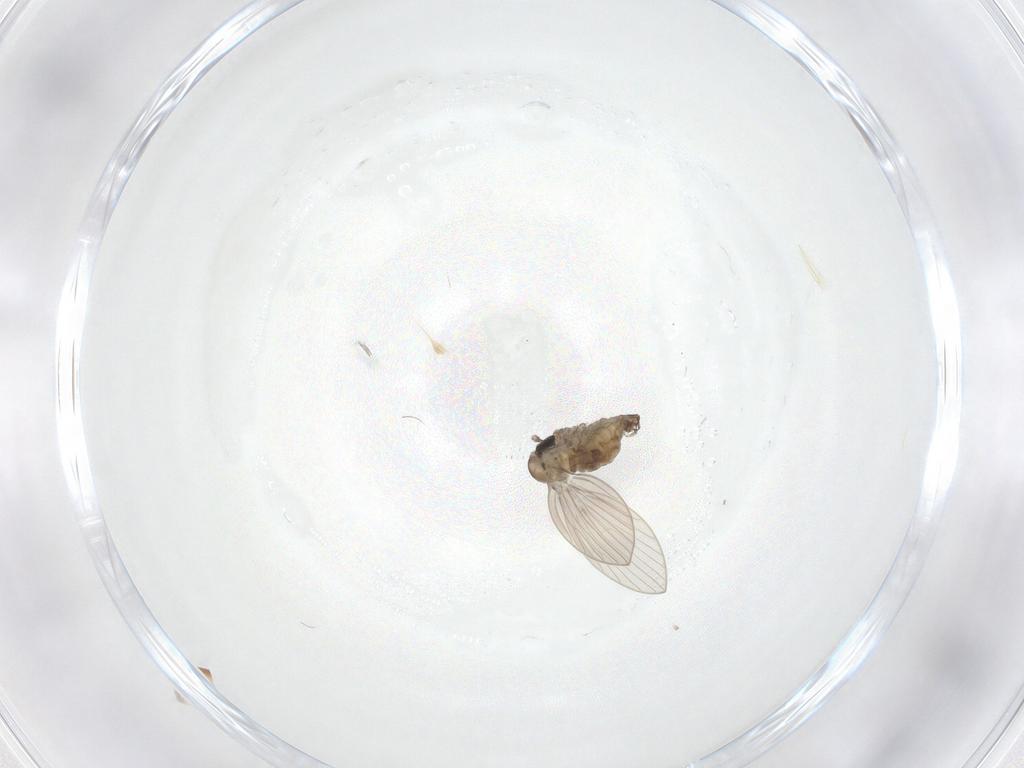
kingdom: Animalia
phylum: Arthropoda
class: Insecta
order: Diptera
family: Psychodidae
